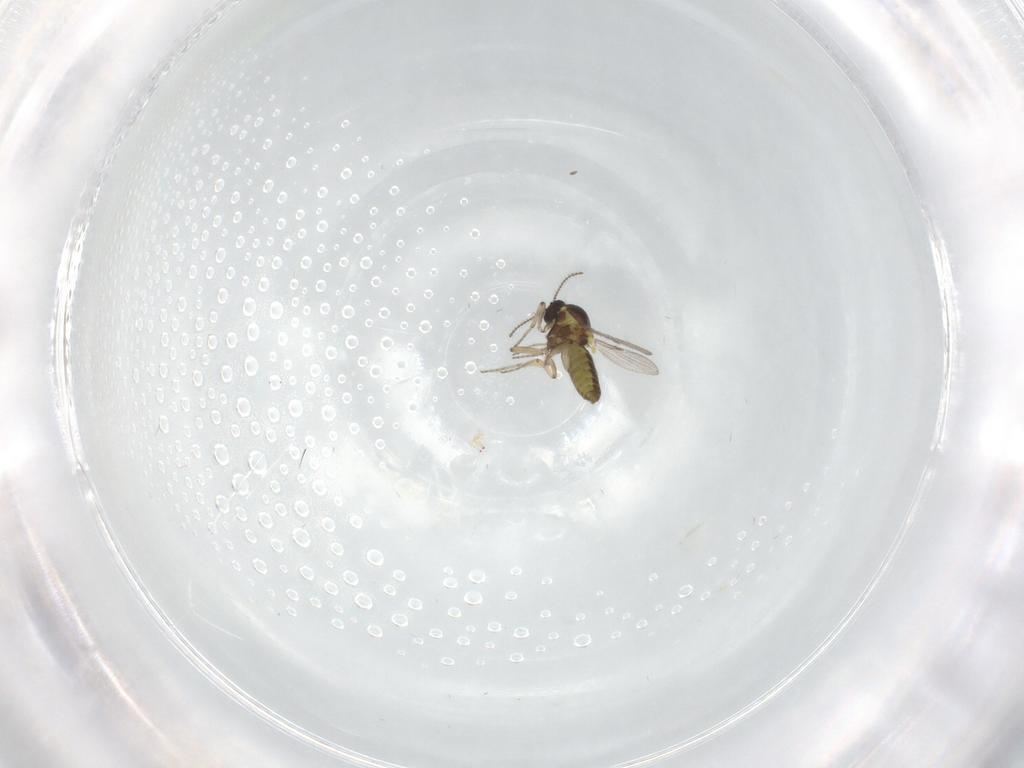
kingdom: Animalia
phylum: Arthropoda
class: Insecta
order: Diptera
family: Ceratopogonidae
